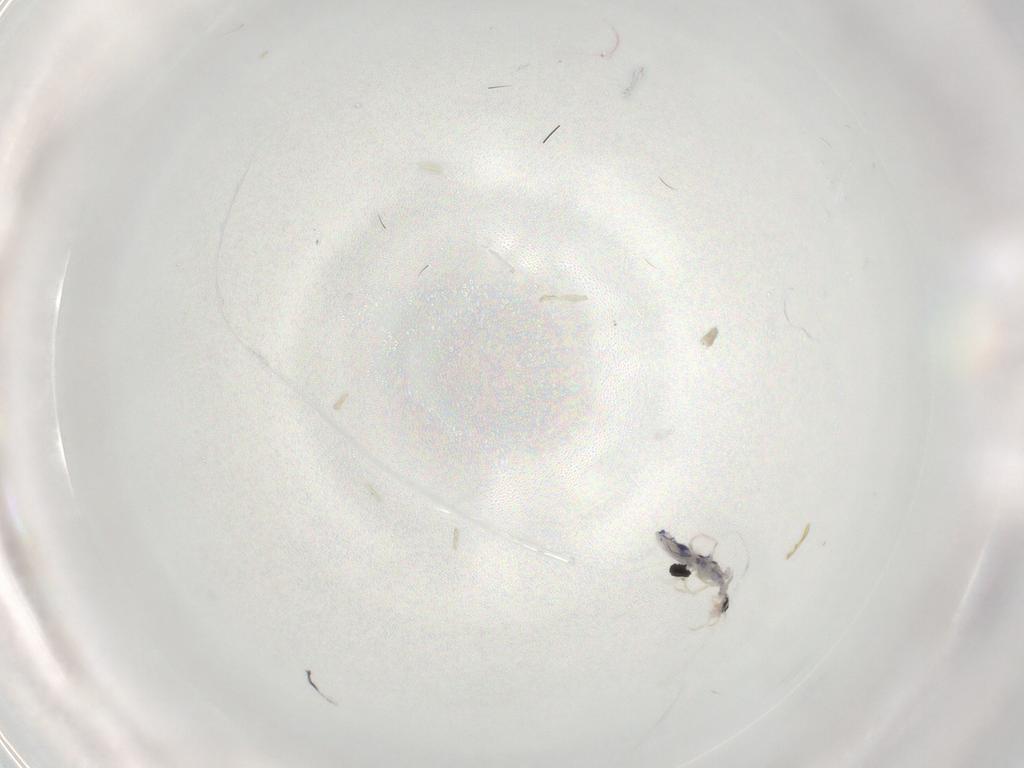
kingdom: Animalia
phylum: Arthropoda
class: Collembola
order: Entomobryomorpha
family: Entomobryidae
